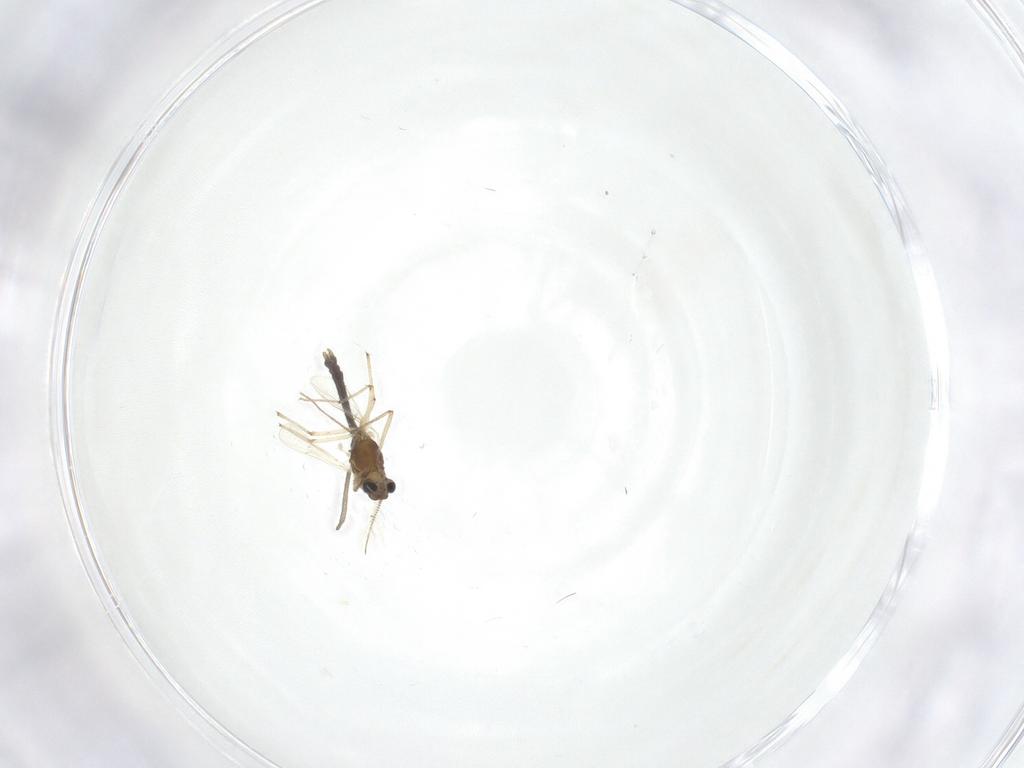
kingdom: Animalia
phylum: Arthropoda
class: Insecta
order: Diptera
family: Psychodidae
